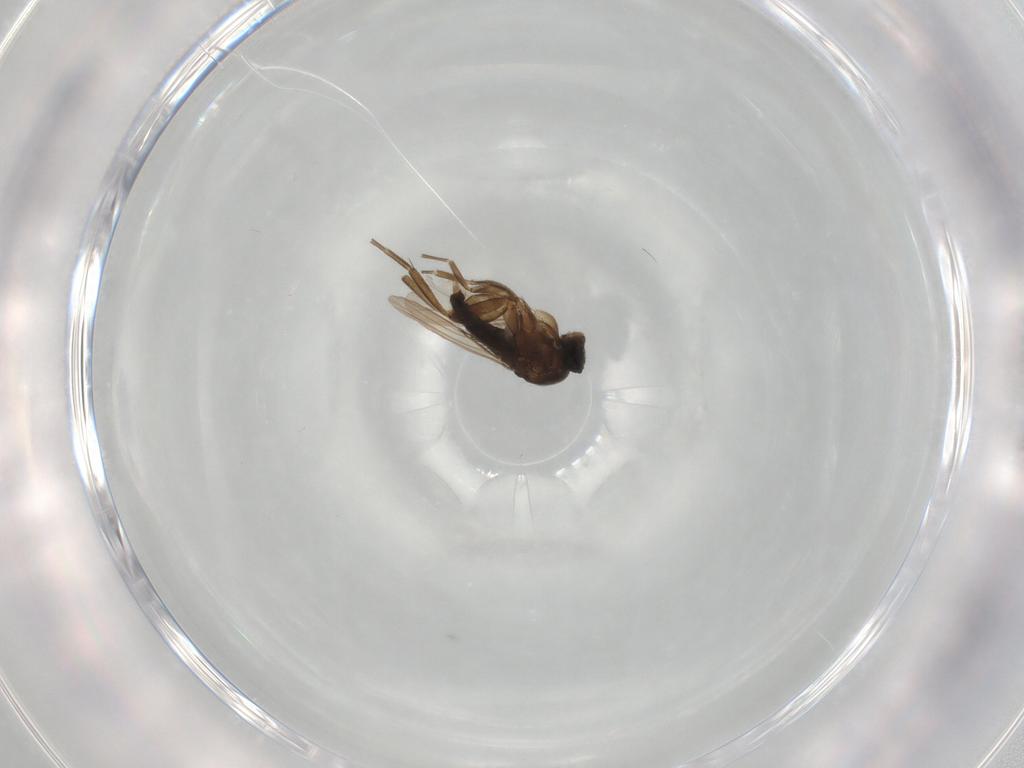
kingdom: Animalia
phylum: Arthropoda
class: Insecta
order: Diptera
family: Phoridae
